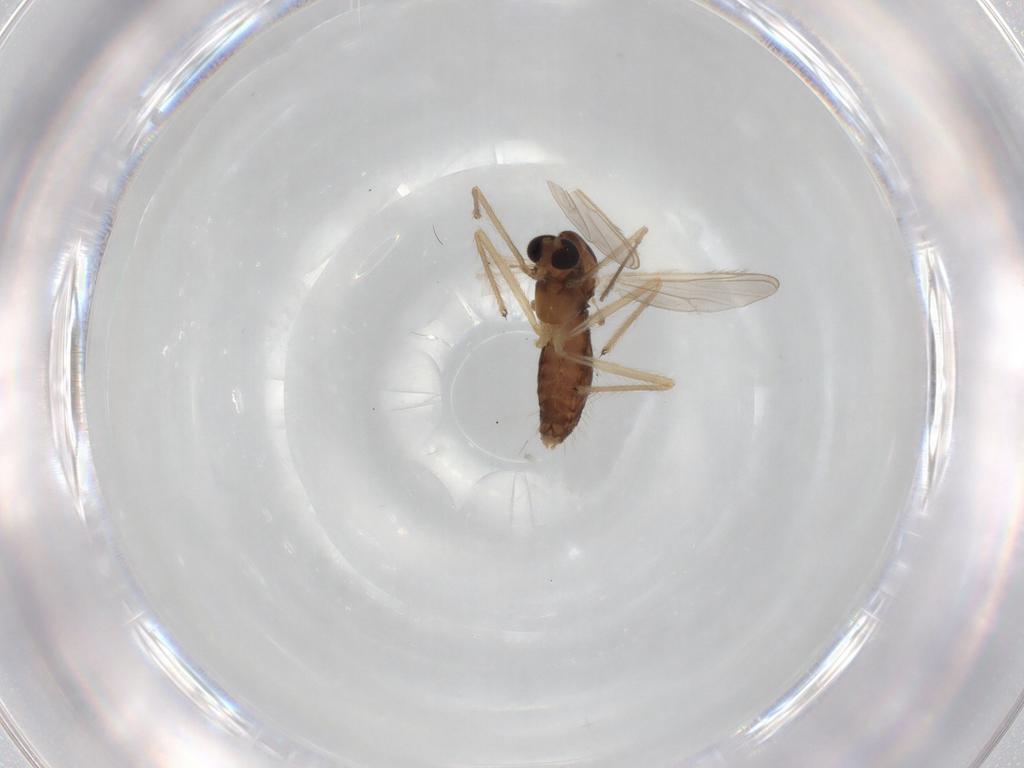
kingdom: Animalia
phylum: Arthropoda
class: Insecta
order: Diptera
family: Chironomidae
